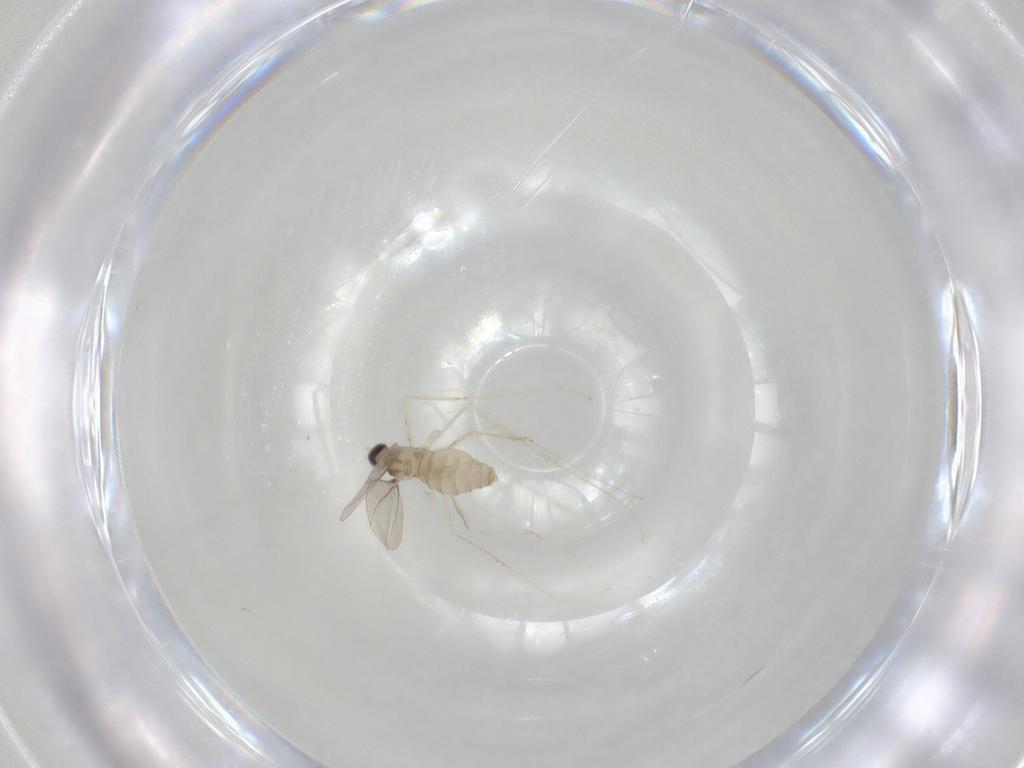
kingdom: Animalia
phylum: Arthropoda
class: Insecta
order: Diptera
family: Cecidomyiidae
